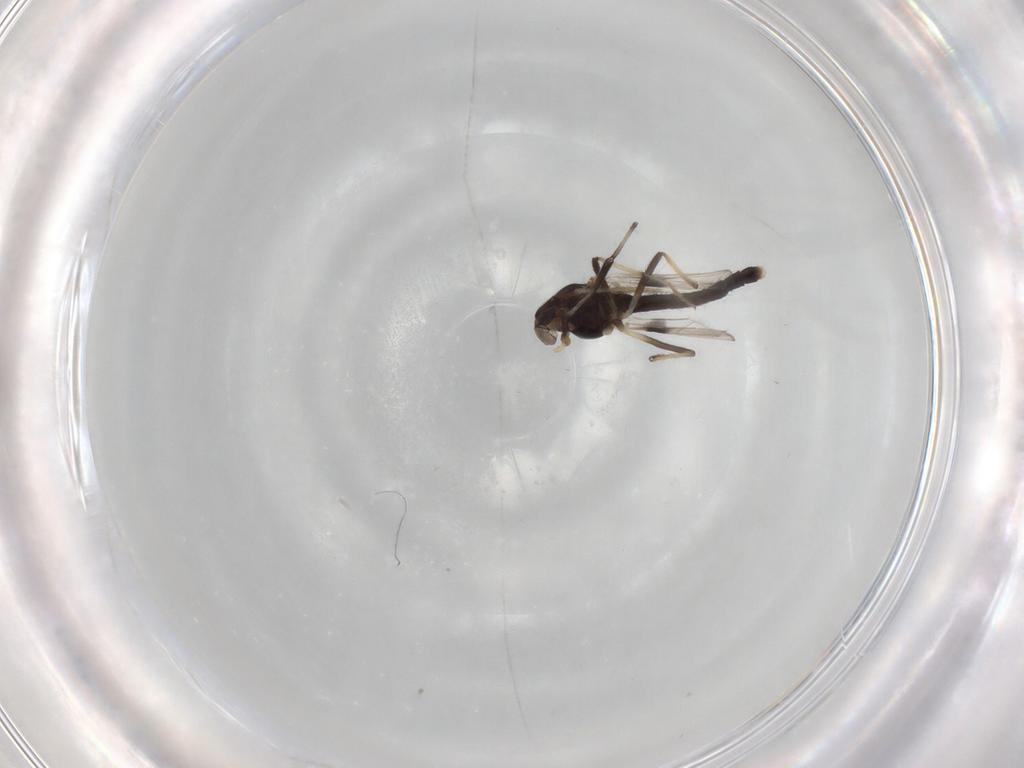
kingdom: Animalia
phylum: Arthropoda
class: Insecta
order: Diptera
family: Chironomidae
